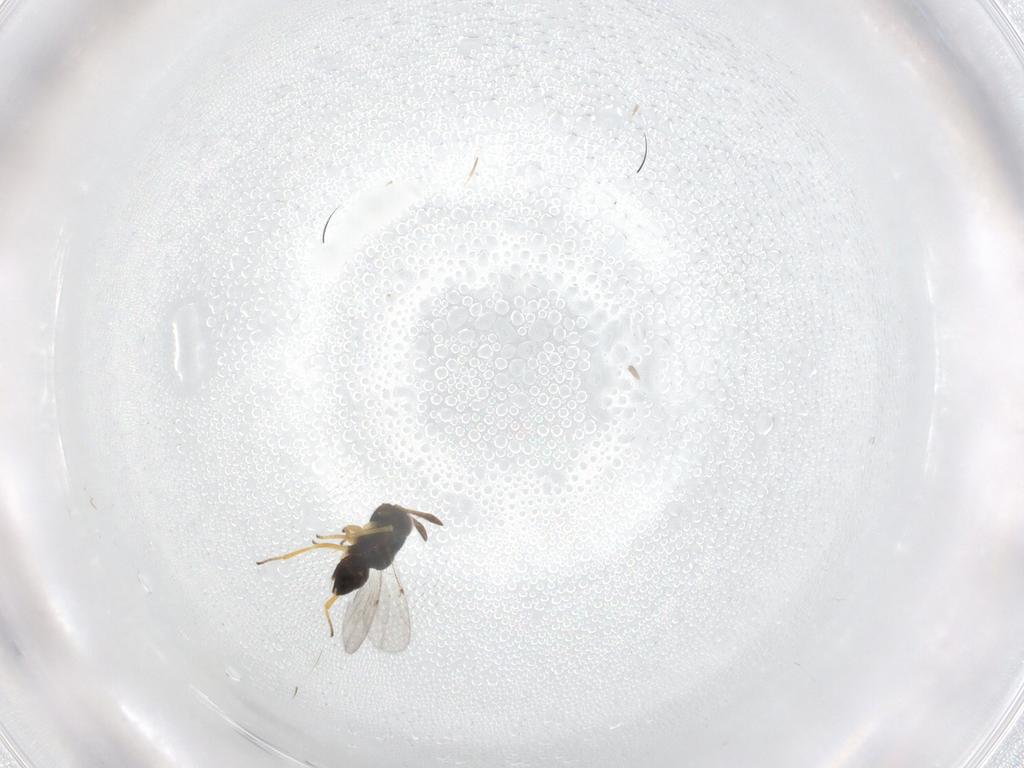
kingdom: Animalia
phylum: Arthropoda
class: Insecta
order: Hymenoptera
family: Encyrtidae
